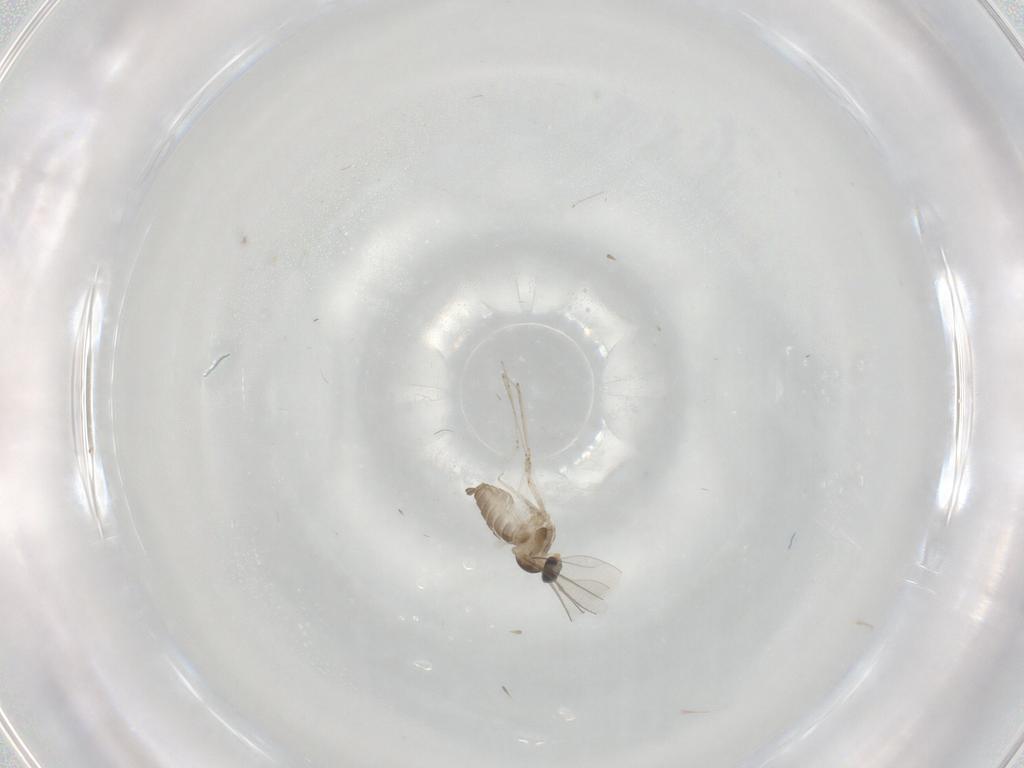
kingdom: Animalia
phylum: Arthropoda
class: Insecta
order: Diptera
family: Cecidomyiidae
